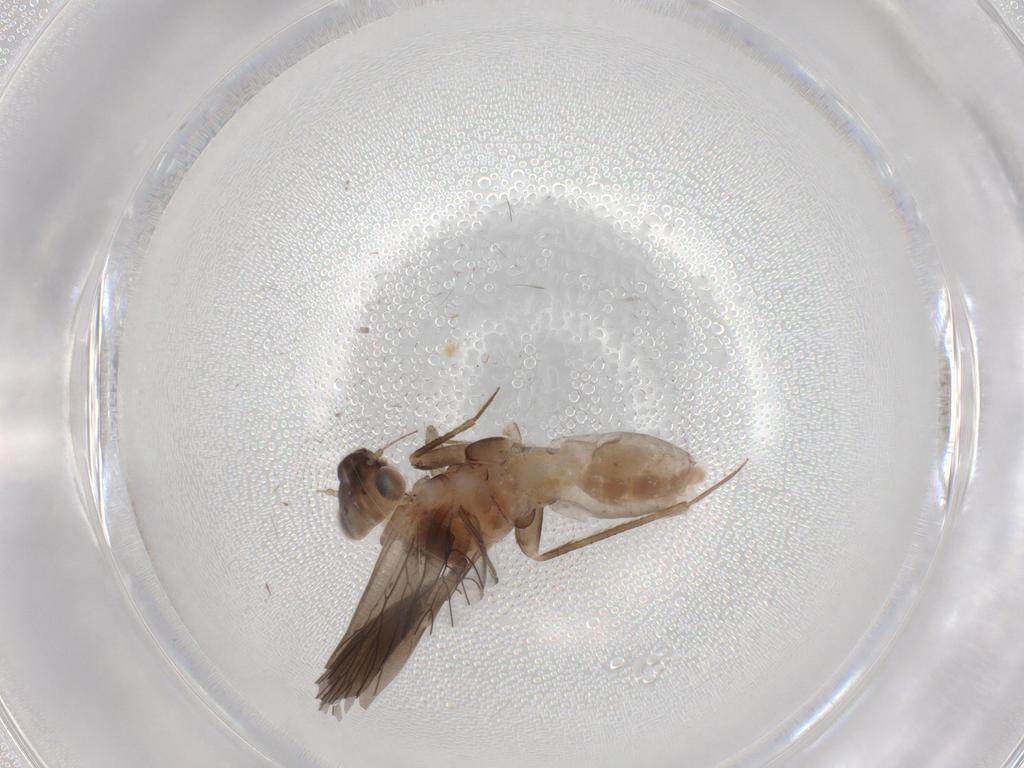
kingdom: Animalia
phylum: Arthropoda
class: Insecta
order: Psocodea
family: Lepidopsocidae
